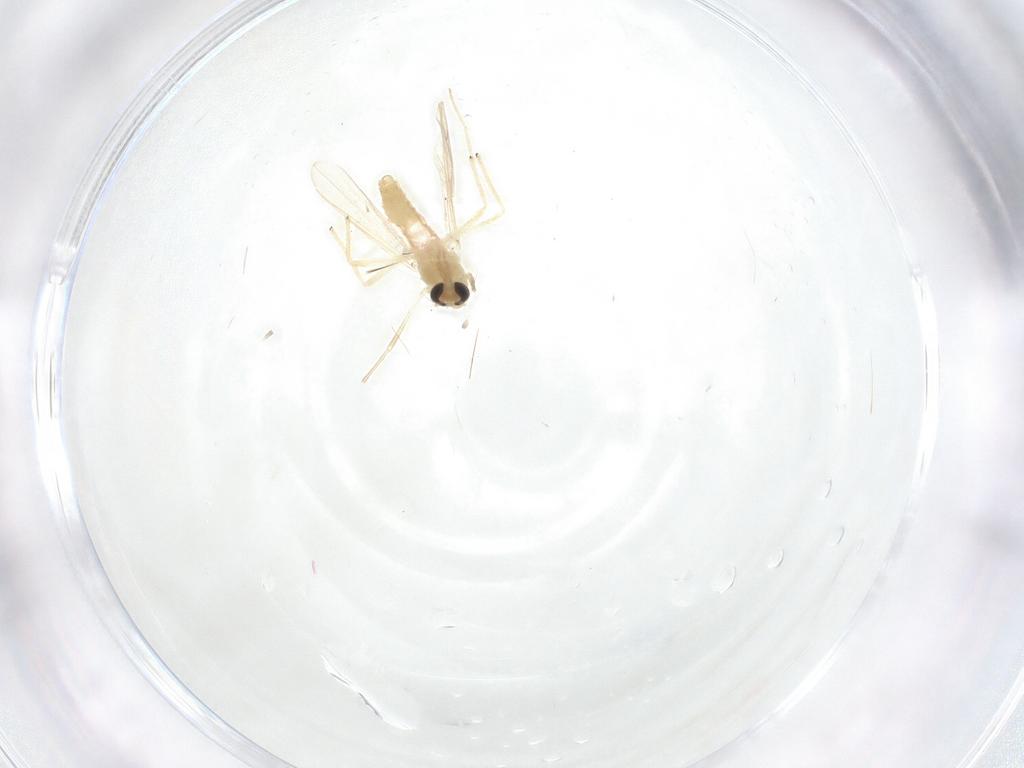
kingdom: Animalia
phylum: Arthropoda
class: Insecta
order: Diptera
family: Chironomidae
